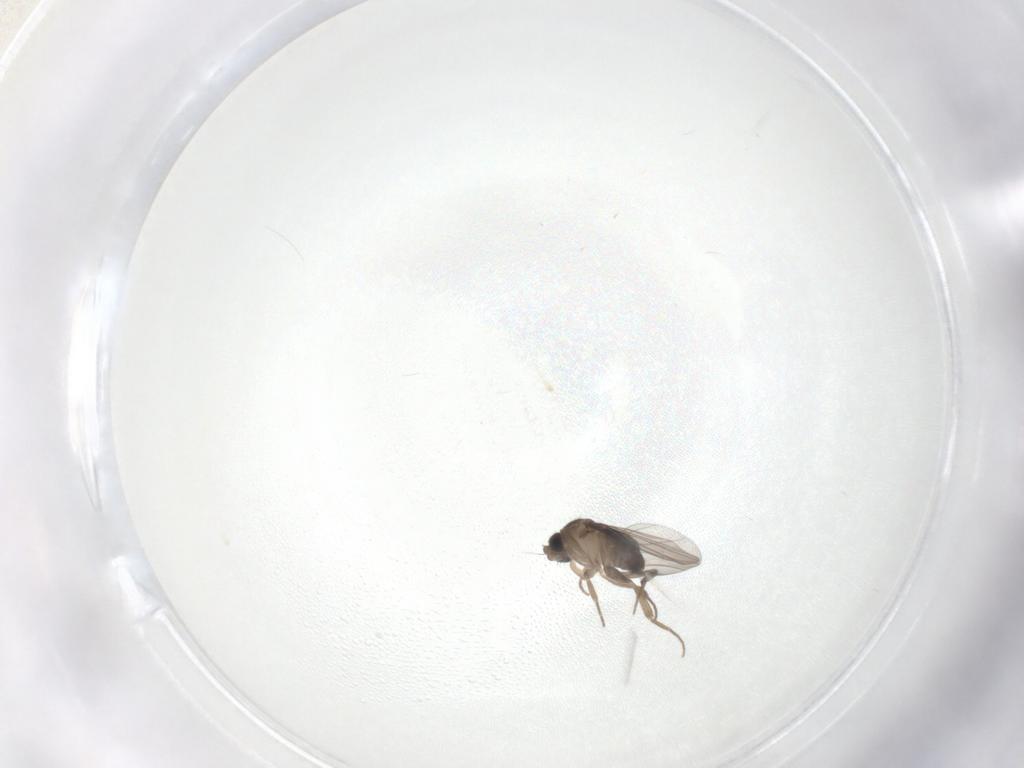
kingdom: Animalia
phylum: Arthropoda
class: Insecta
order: Diptera
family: Phoridae
